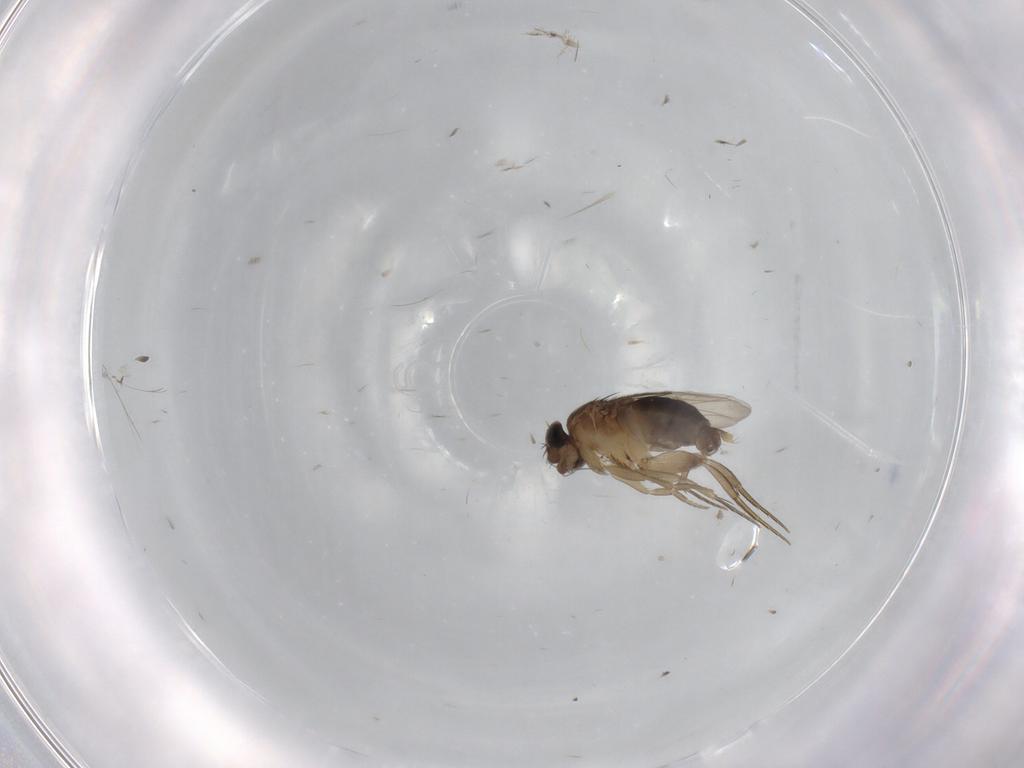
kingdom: Animalia
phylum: Arthropoda
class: Insecta
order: Diptera
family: Phoridae
